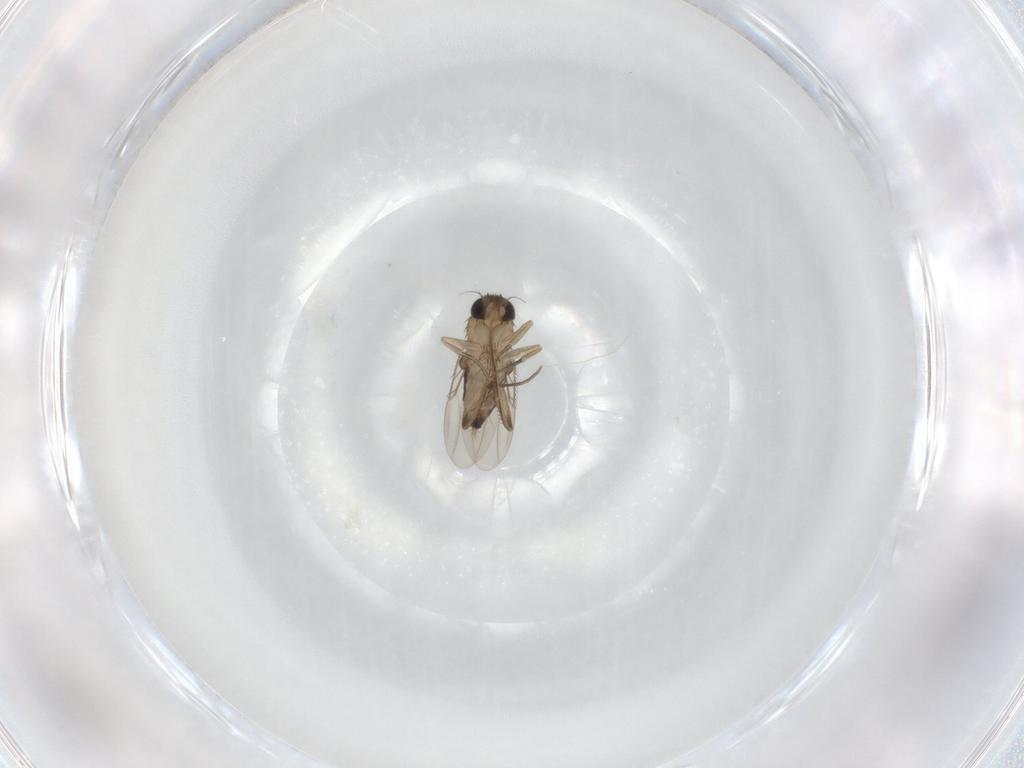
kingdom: Animalia
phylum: Arthropoda
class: Insecta
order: Diptera
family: Phoridae
